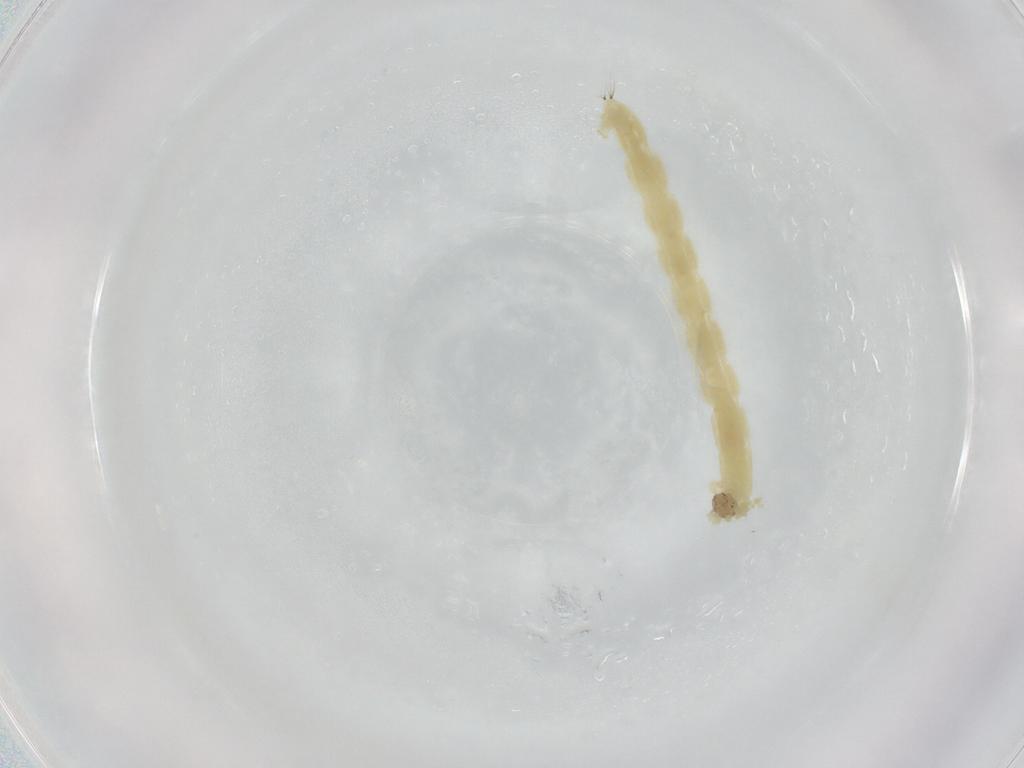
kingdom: Animalia
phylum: Arthropoda
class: Insecta
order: Diptera
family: Chironomidae
